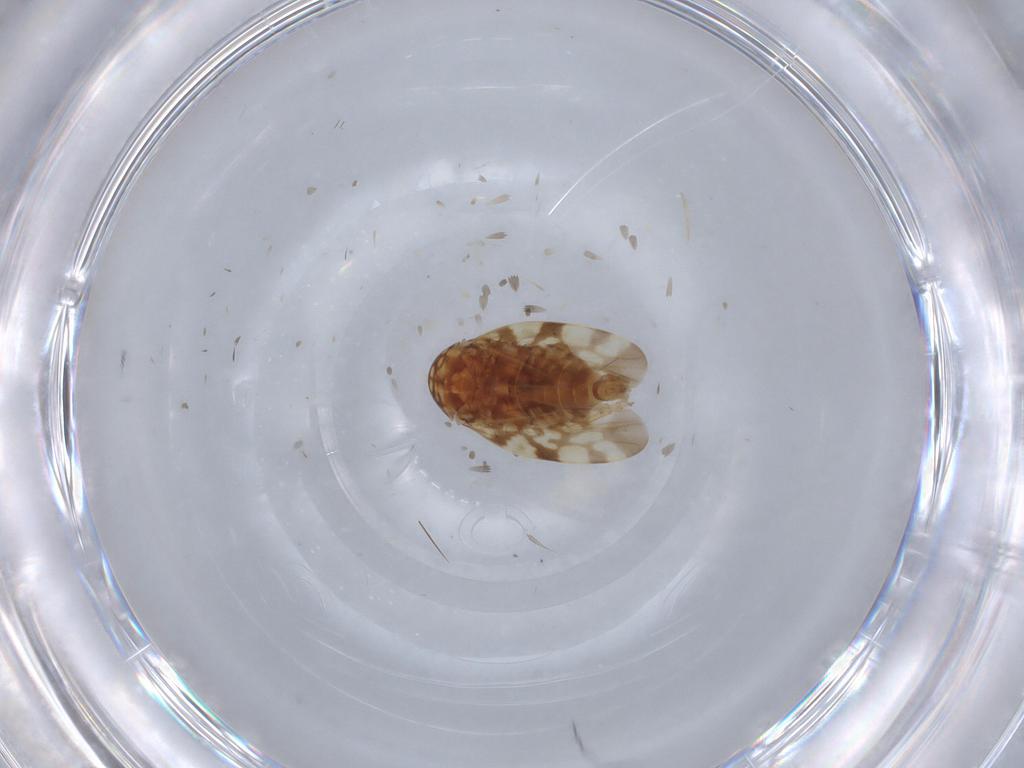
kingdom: Animalia
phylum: Arthropoda
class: Insecta
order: Hemiptera
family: Cicadellidae
